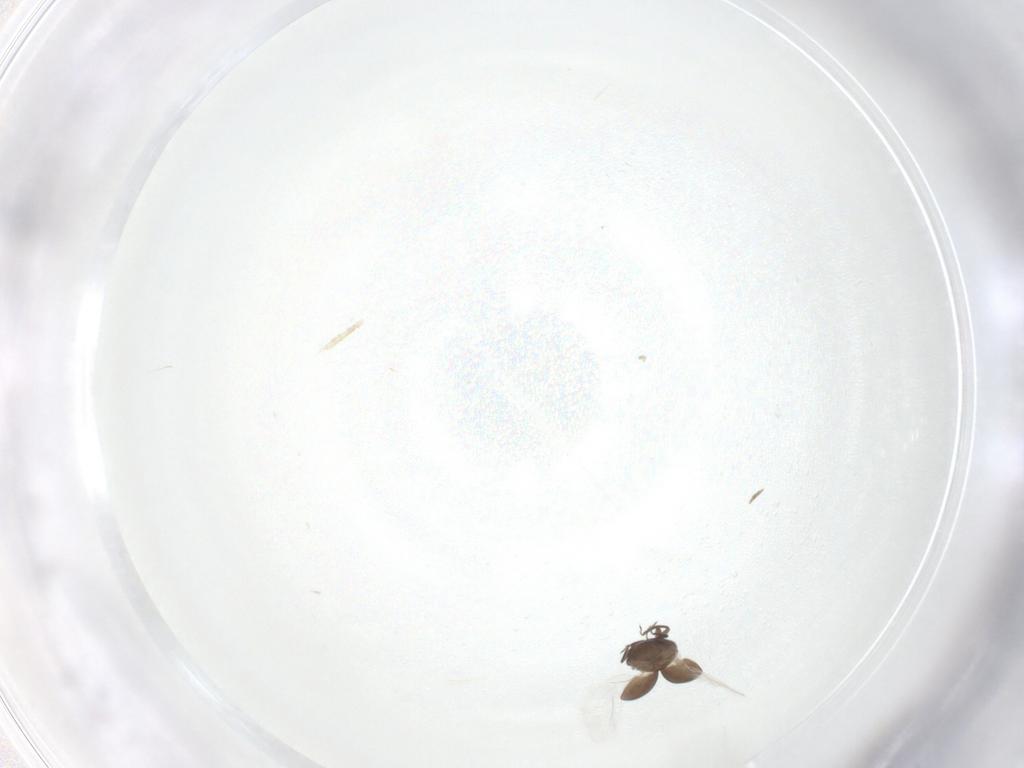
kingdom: Animalia
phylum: Arthropoda
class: Insecta
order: Coleoptera
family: Corylophidae
